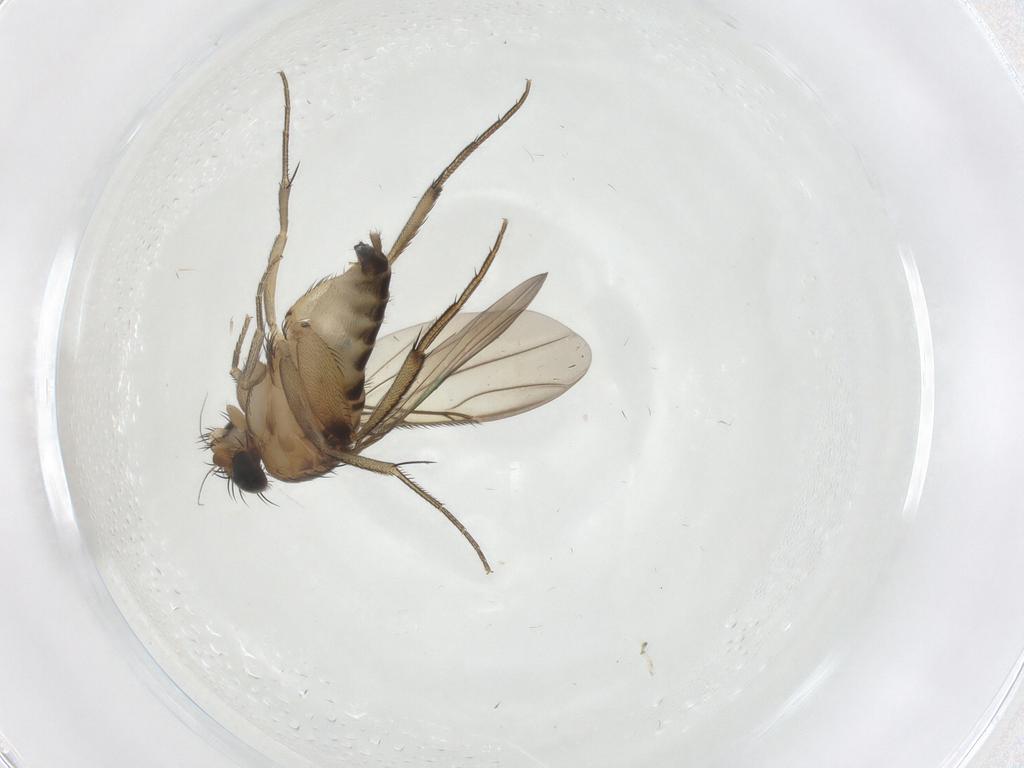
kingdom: Animalia
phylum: Arthropoda
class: Insecta
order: Diptera
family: Phoridae
